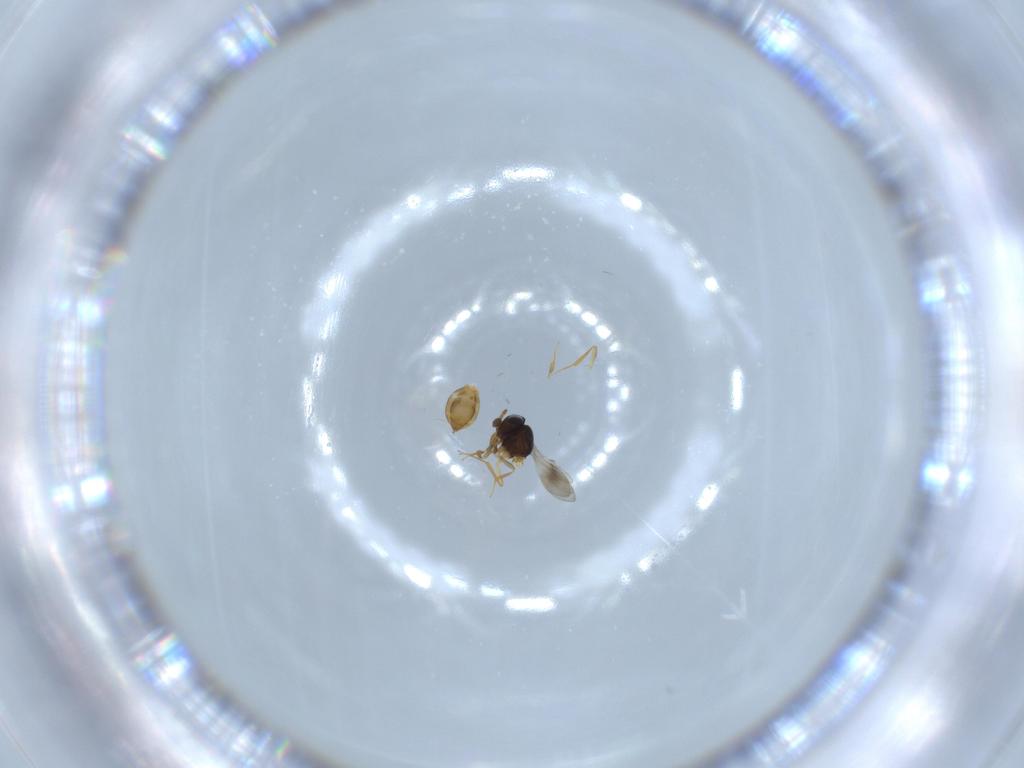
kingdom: Animalia
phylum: Arthropoda
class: Insecta
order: Hymenoptera
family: Scelionidae
